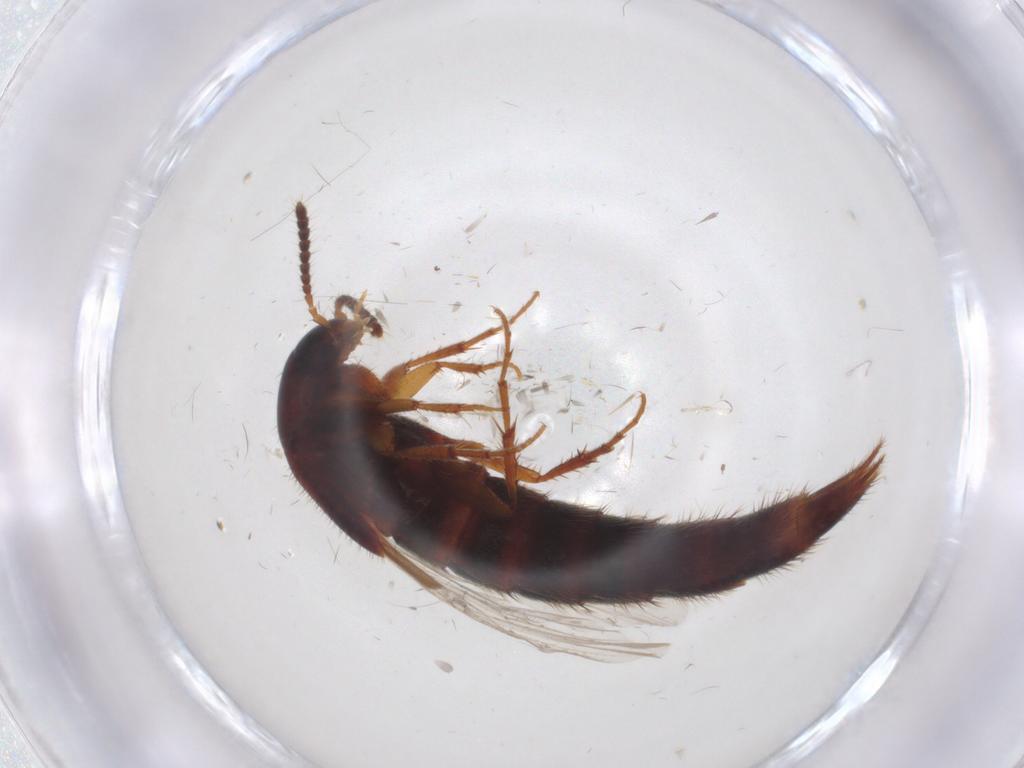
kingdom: Animalia
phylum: Arthropoda
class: Insecta
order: Coleoptera
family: Staphylinidae
